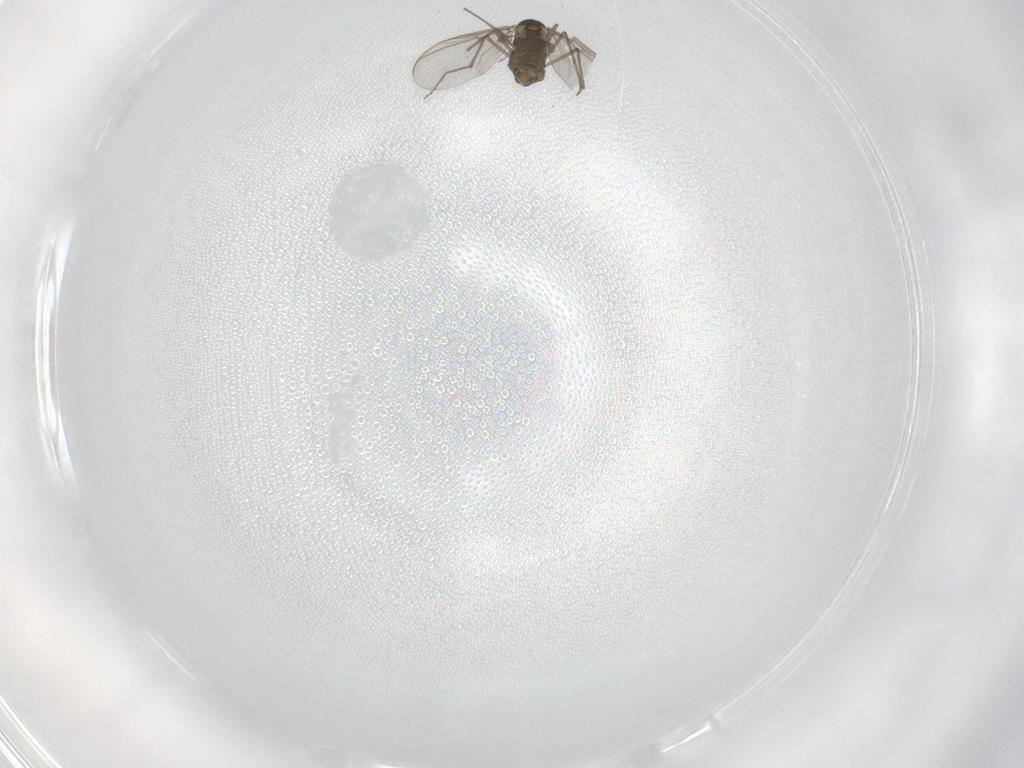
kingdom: Animalia
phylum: Arthropoda
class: Insecta
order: Diptera
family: Chironomidae
